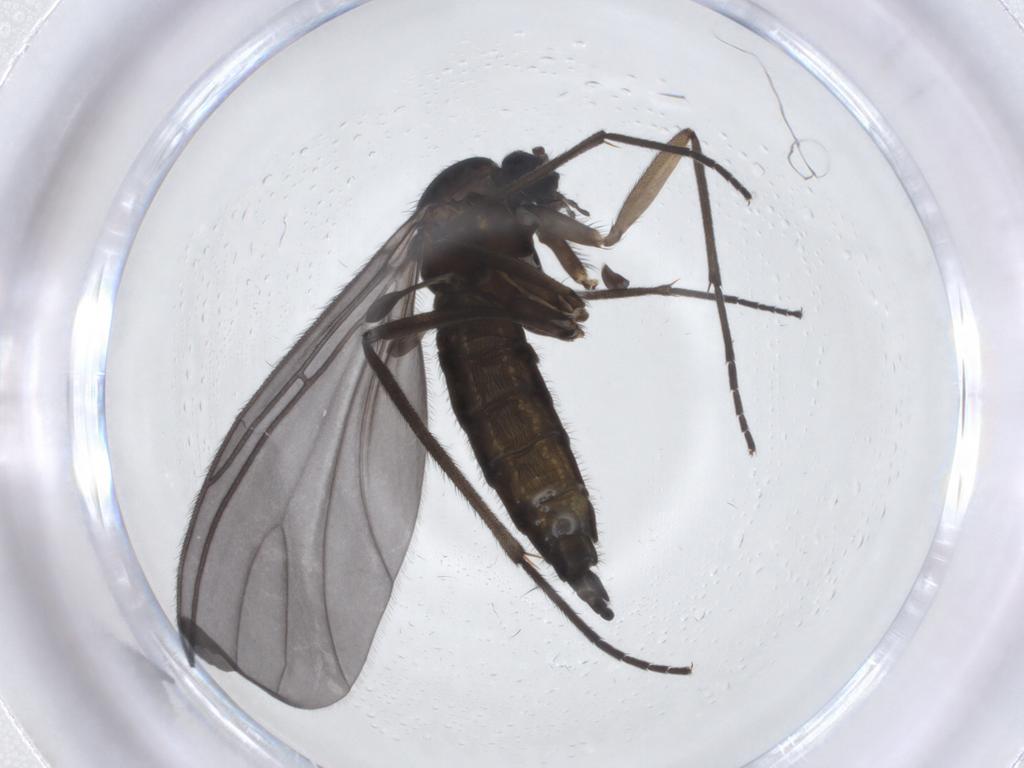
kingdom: Animalia
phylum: Arthropoda
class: Insecta
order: Diptera
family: Sciaridae
